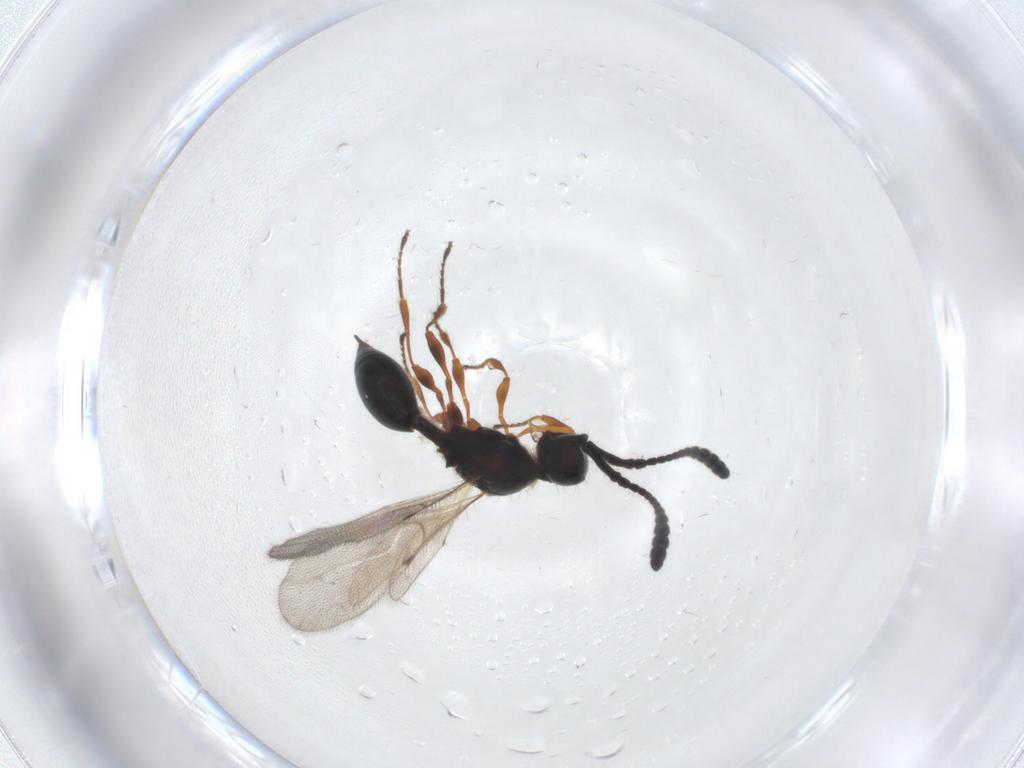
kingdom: Animalia
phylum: Arthropoda
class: Insecta
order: Hymenoptera
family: Diapriidae
